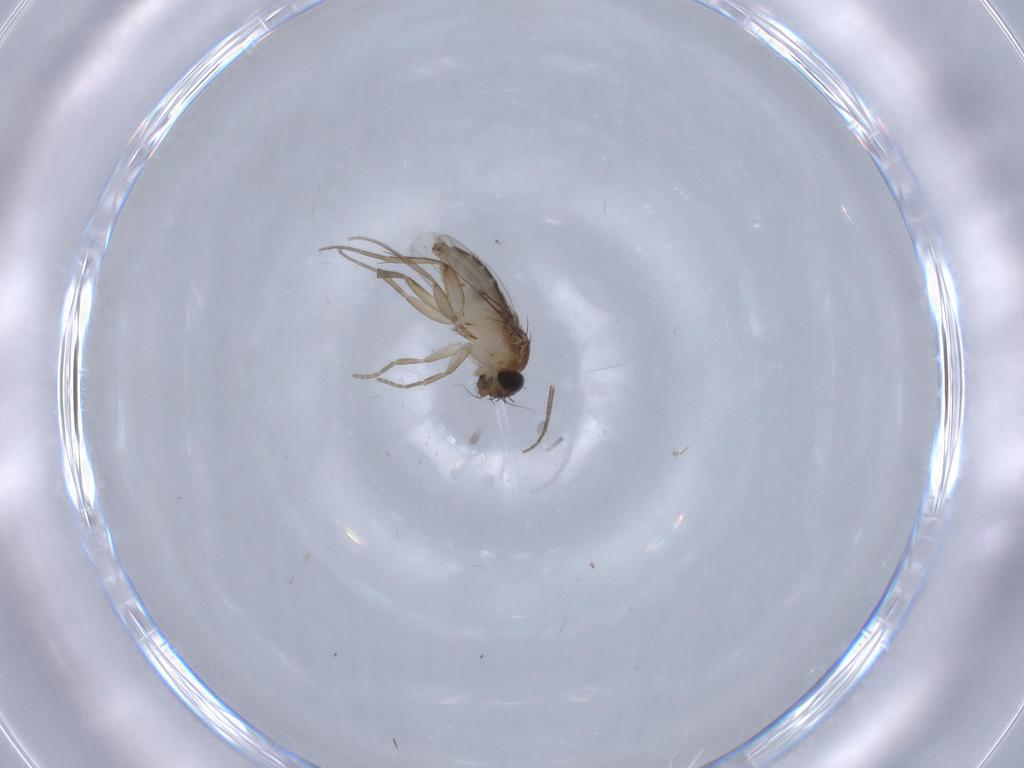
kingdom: Animalia
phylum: Arthropoda
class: Insecta
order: Diptera
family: Phoridae
